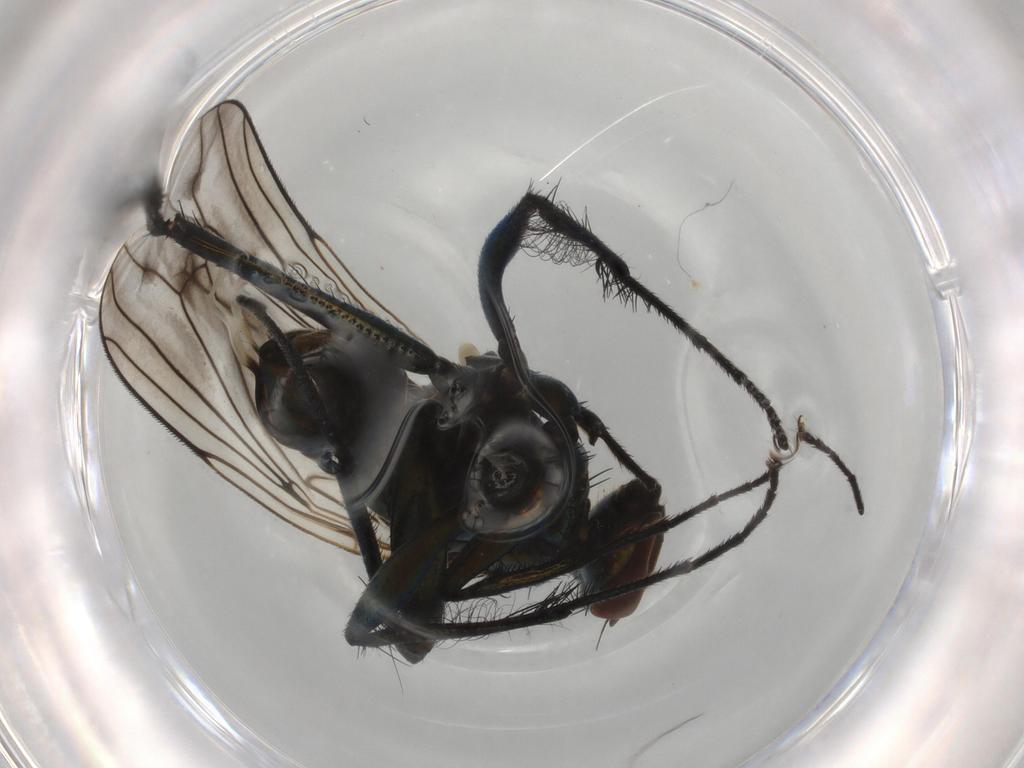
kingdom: Animalia
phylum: Arthropoda
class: Insecta
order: Diptera
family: Dolichopodidae
